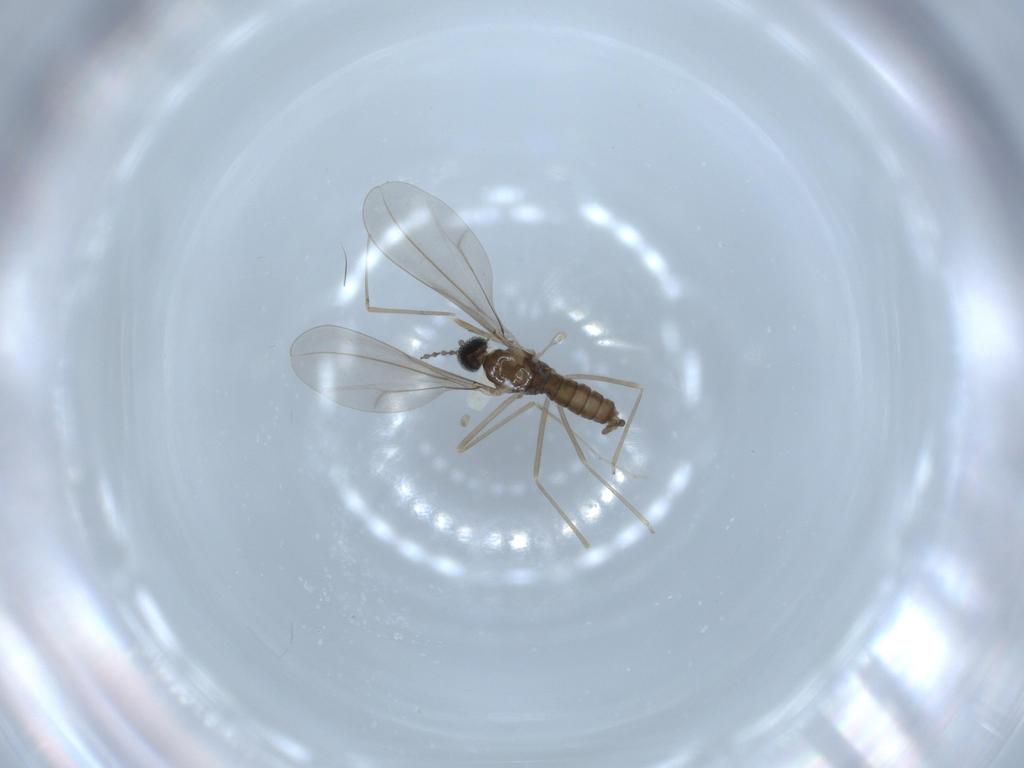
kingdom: Animalia
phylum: Arthropoda
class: Insecta
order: Diptera
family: Cecidomyiidae
